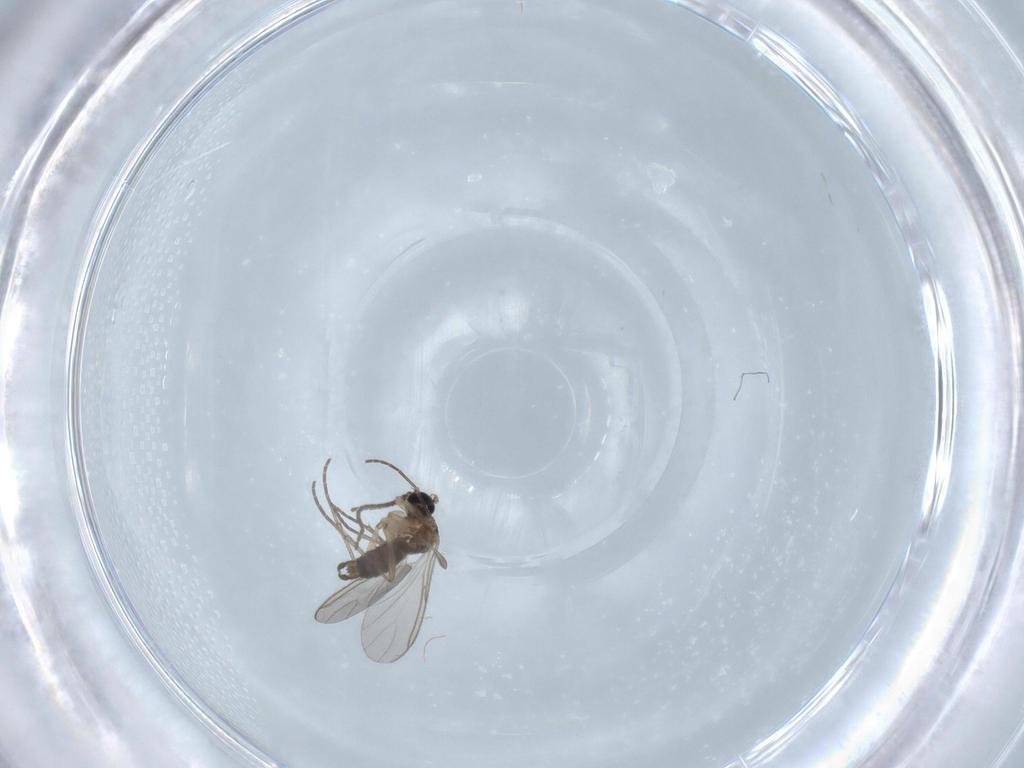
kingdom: Animalia
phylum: Arthropoda
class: Insecta
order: Diptera
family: Sciaridae
